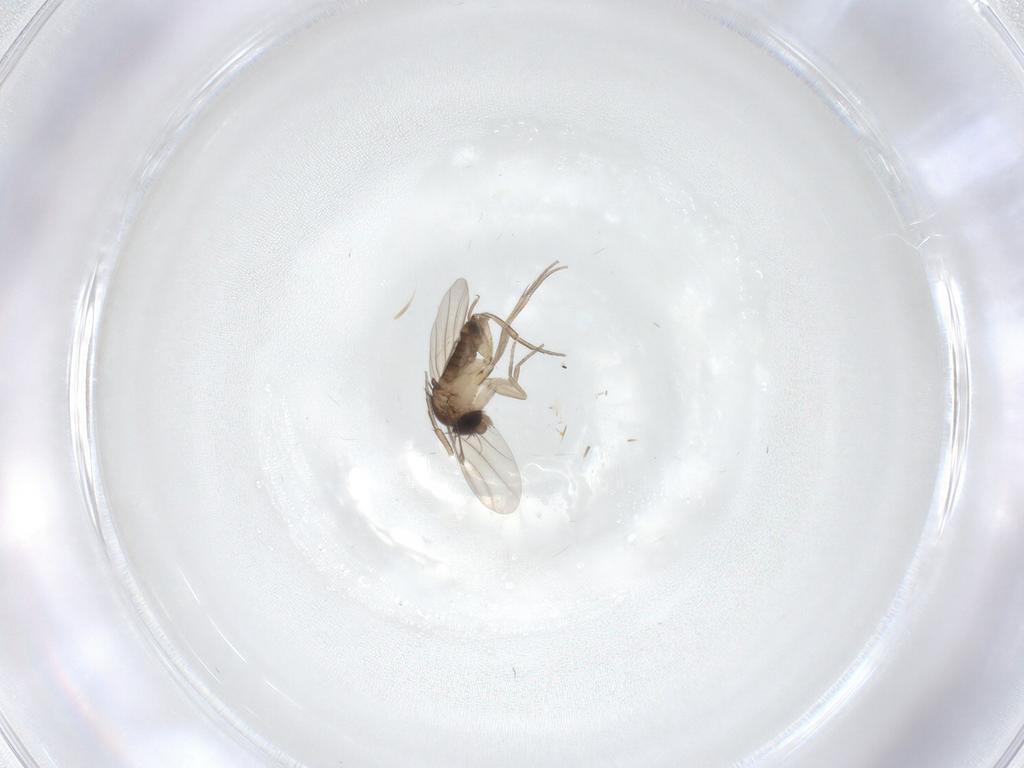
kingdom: Animalia
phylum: Arthropoda
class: Insecta
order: Diptera
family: Phoridae
